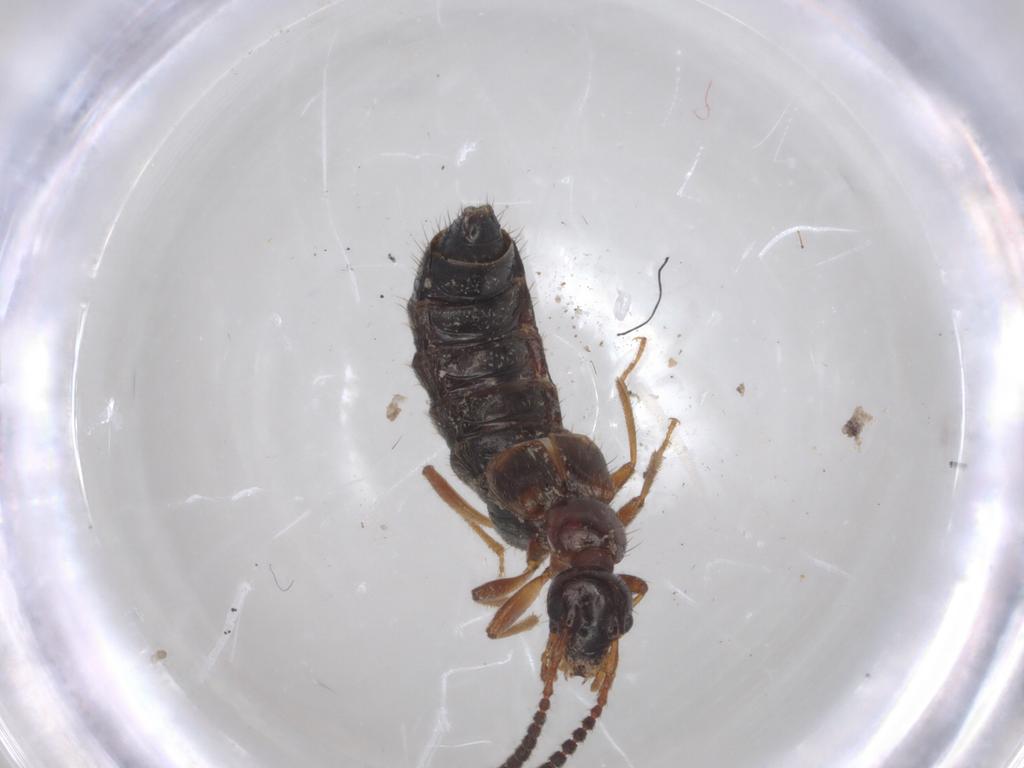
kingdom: Animalia
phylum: Arthropoda
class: Insecta
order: Coleoptera
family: Staphylinidae
